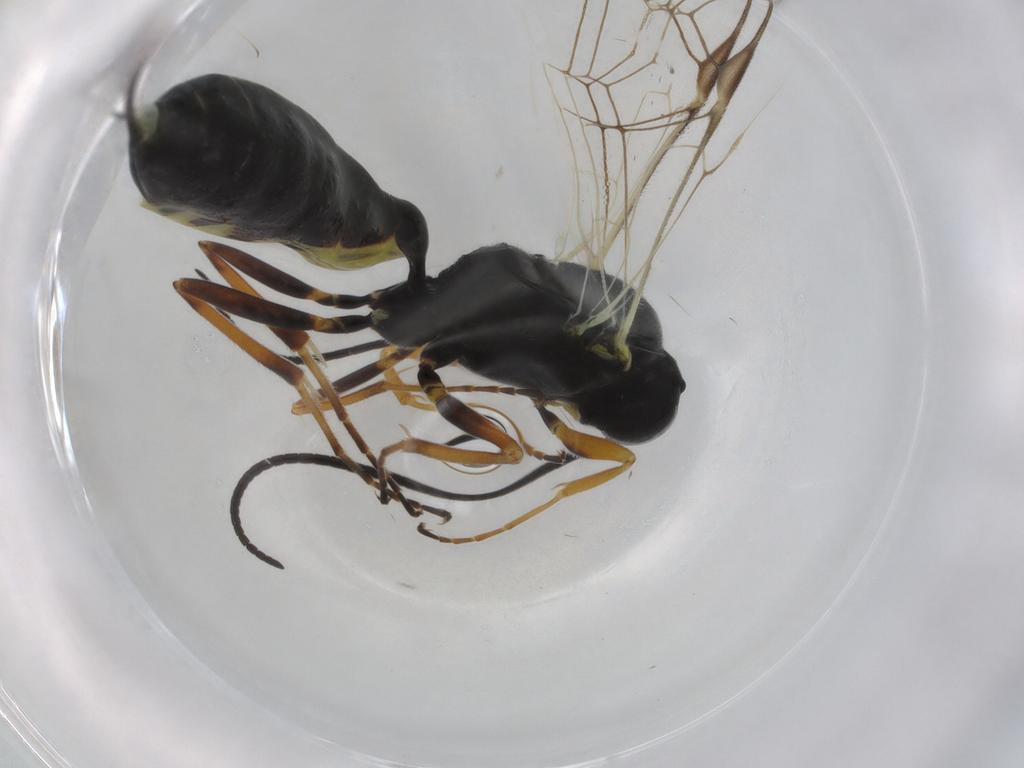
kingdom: Animalia
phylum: Arthropoda
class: Insecta
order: Hymenoptera
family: Ichneumonidae
